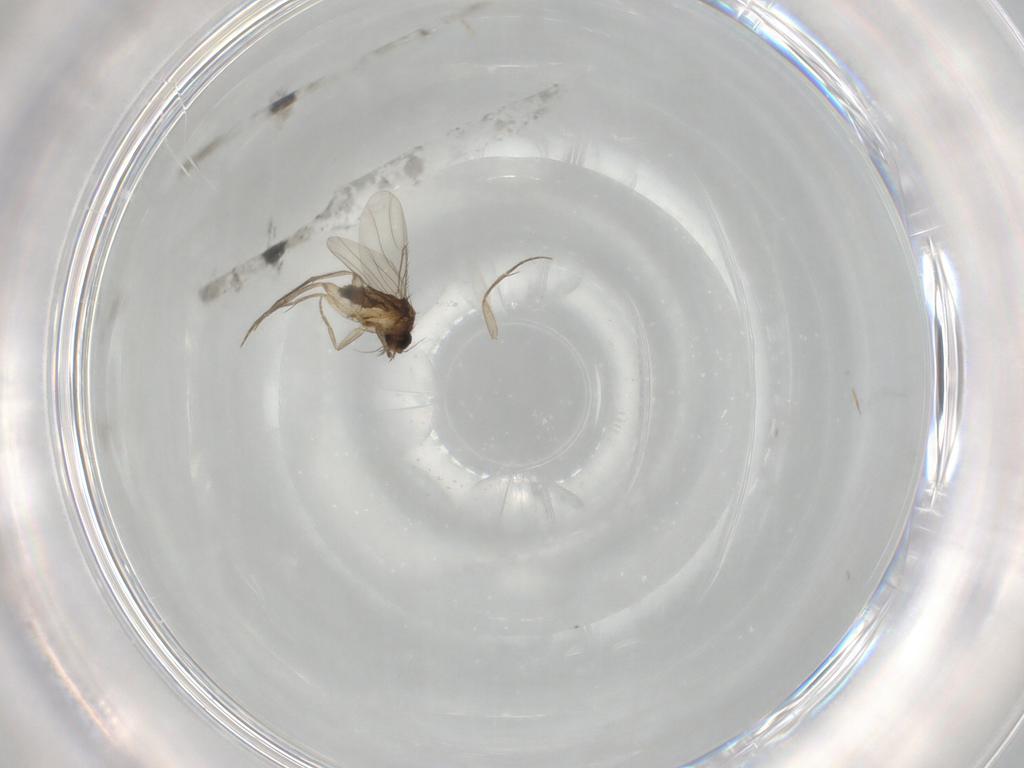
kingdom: Animalia
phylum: Arthropoda
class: Insecta
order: Diptera
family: Phoridae
